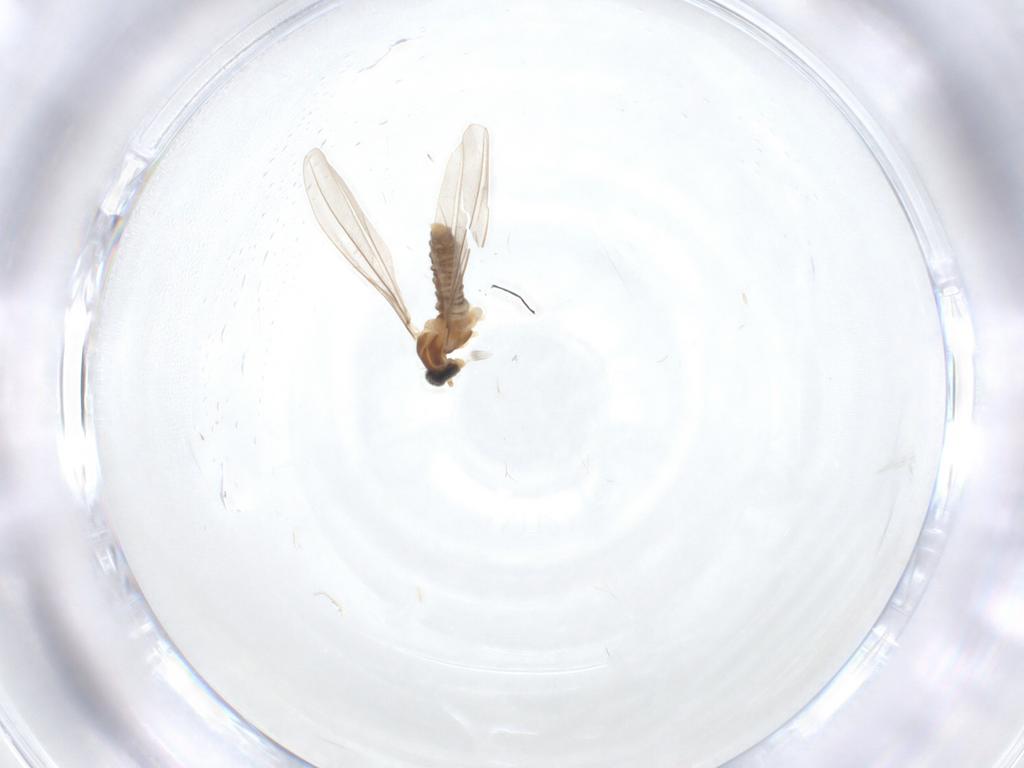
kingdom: Animalia
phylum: Arthropoda
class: Insecta
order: Diptera
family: Cecidomyiidae
